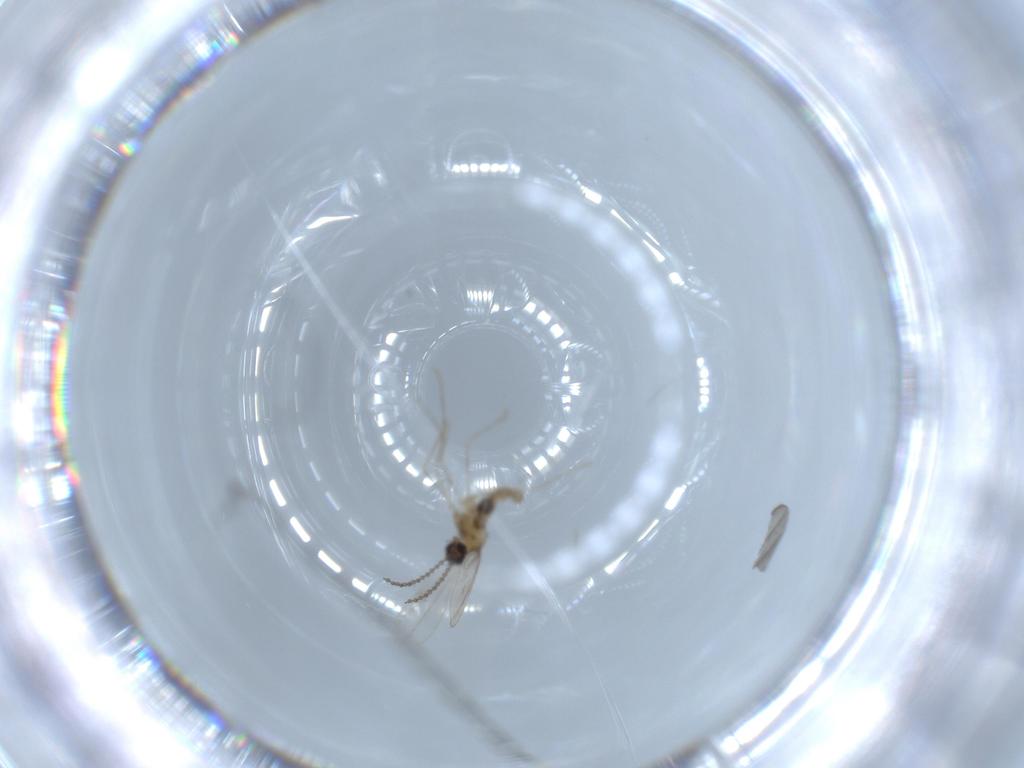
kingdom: Animalia
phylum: Arthropoda
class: Insecta
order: Diptera
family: Cecidomyiidae
